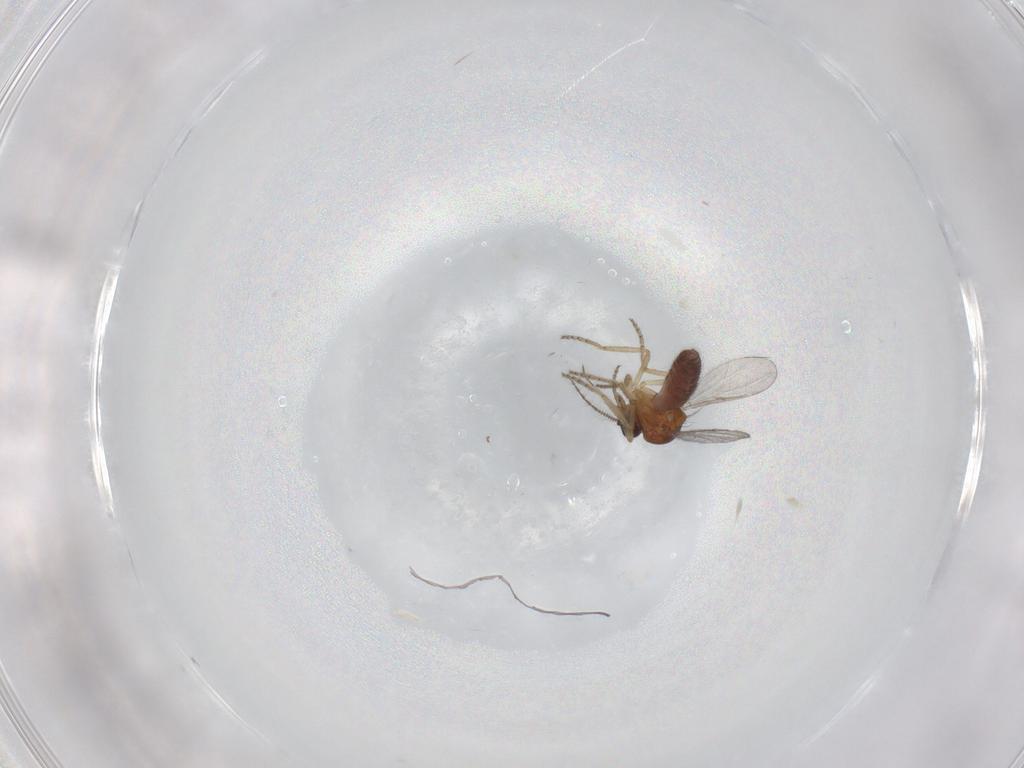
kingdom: Animalia
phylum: Arthropoda
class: Insecta
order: Diptera
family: Ceratopogonidae
